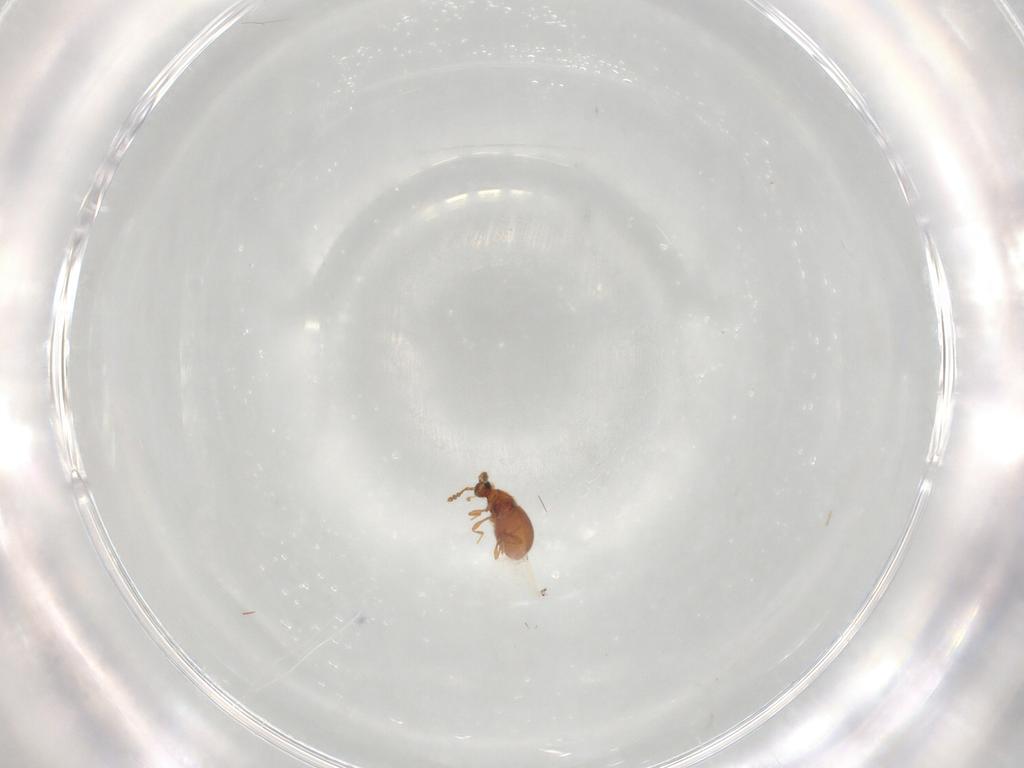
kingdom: Animalia
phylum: Arthropoda
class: Insecta
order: Coleoptera
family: Staphylinidae
